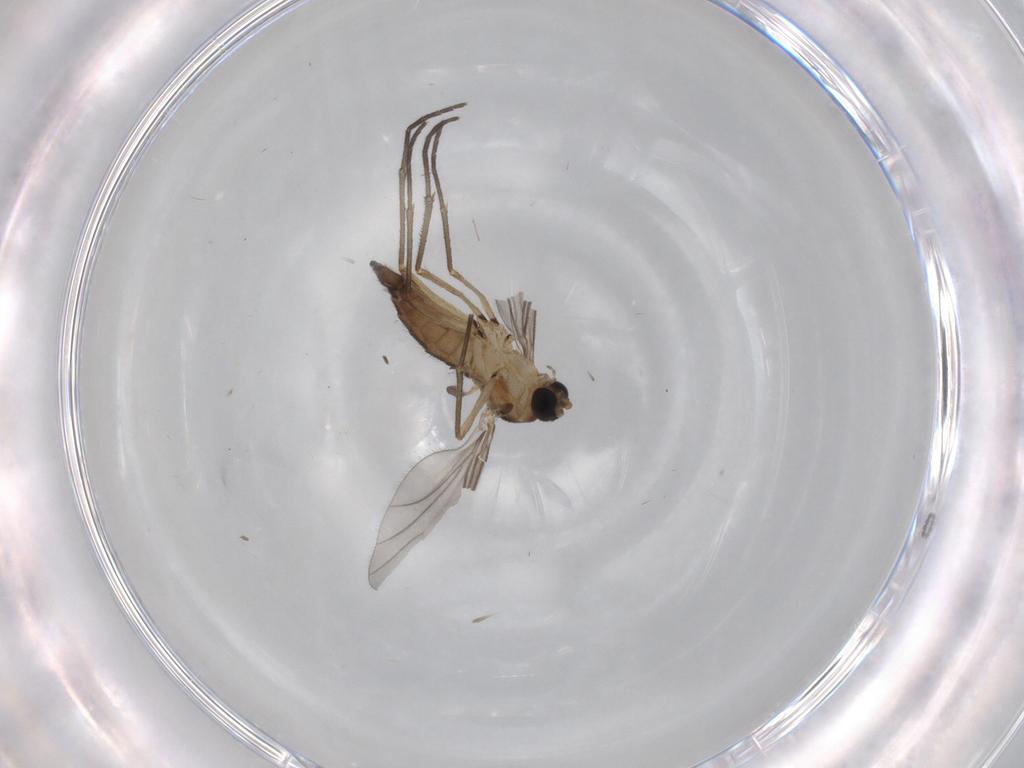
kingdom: Animalia
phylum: Arthropoda
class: Insecta
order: Diptera
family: Sciaridae
